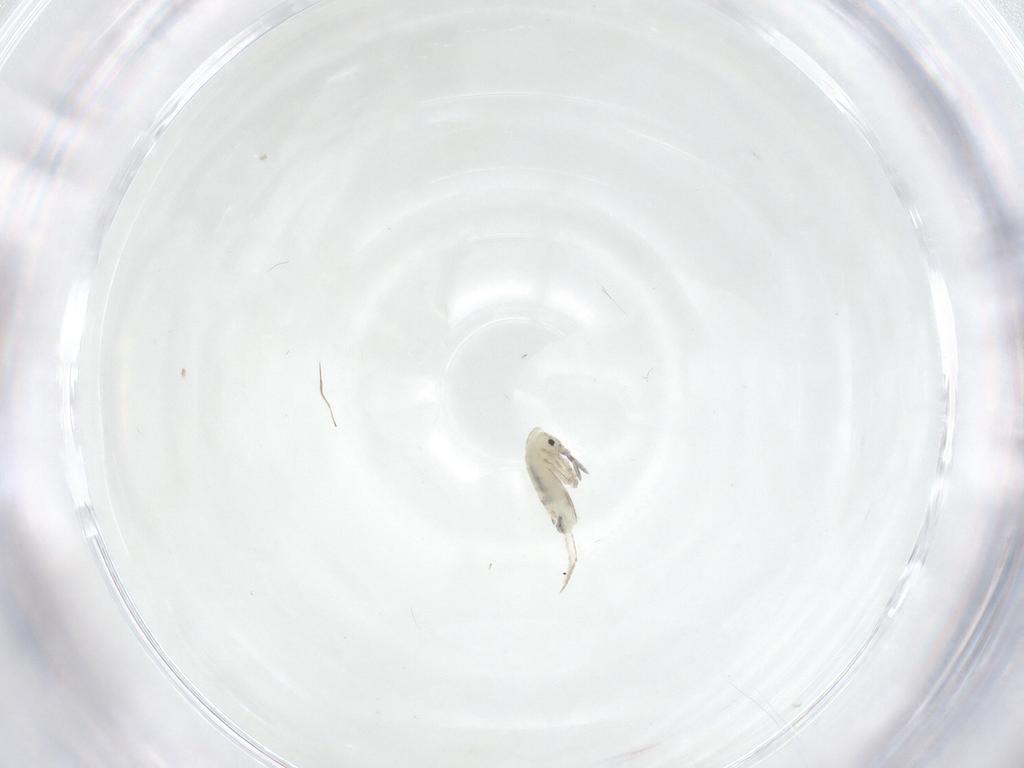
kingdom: Animalia
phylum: Arthropoda
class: Collembola
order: Entomobryomorpha
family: Entomobryidae
